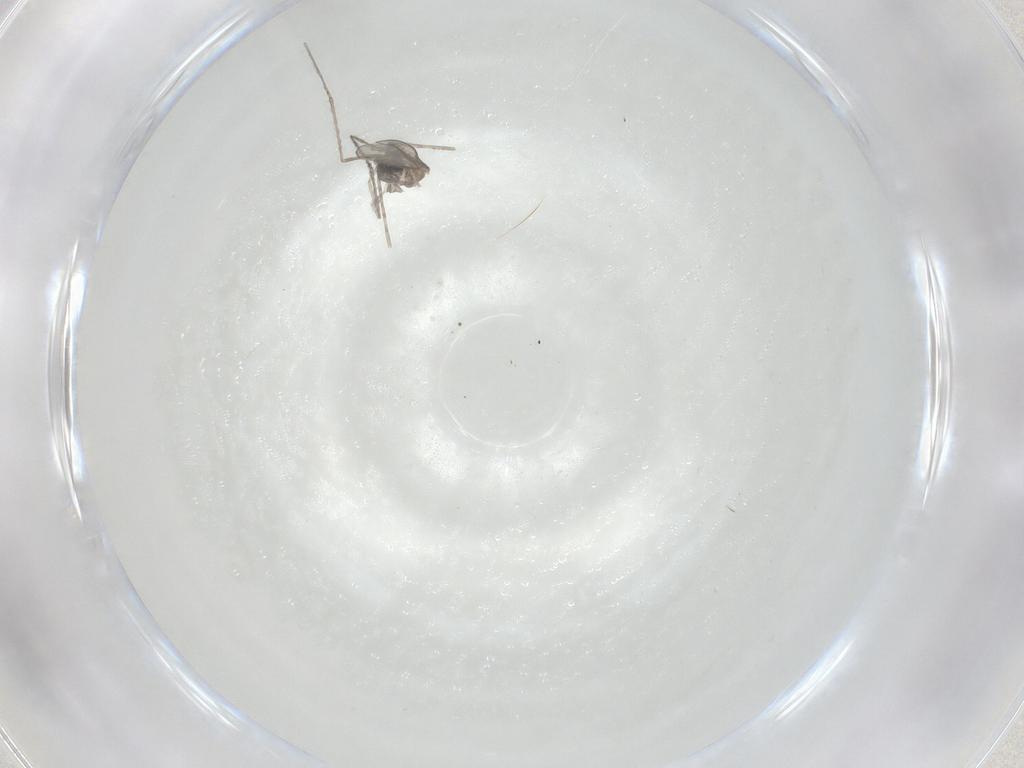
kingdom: Animalia
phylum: Arthropoda
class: Insecta
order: Diptera
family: Cecidomyiidae
